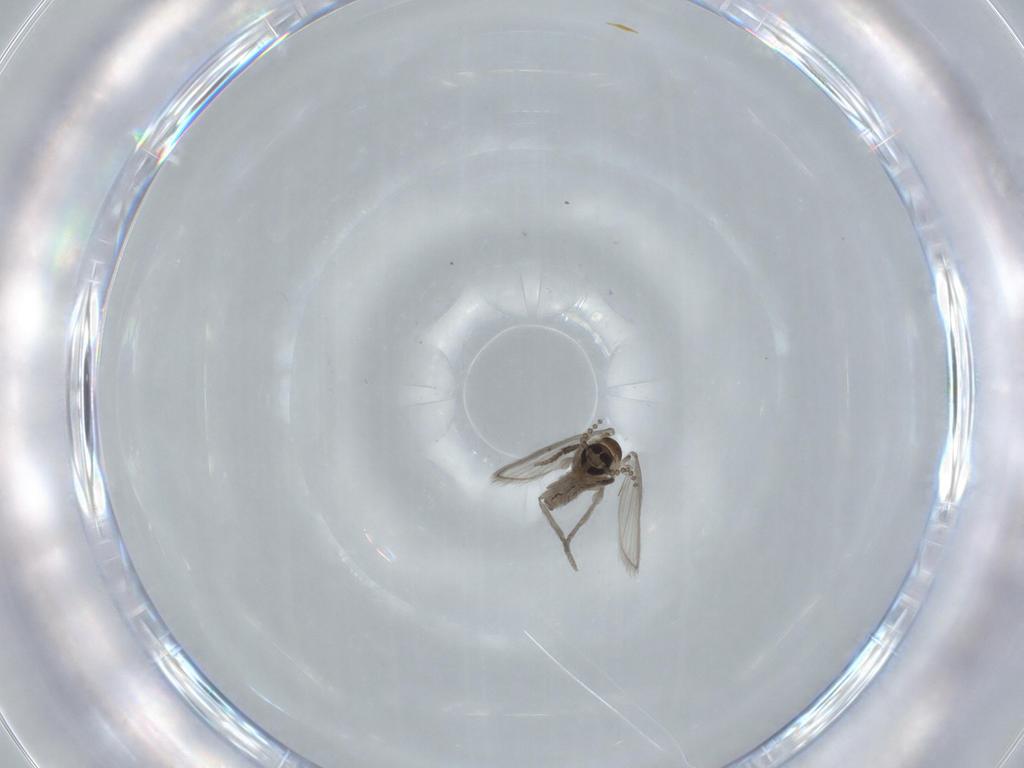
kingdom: Animalia
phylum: Arthropoda
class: Insecta
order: Diptera
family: Psychodidae
